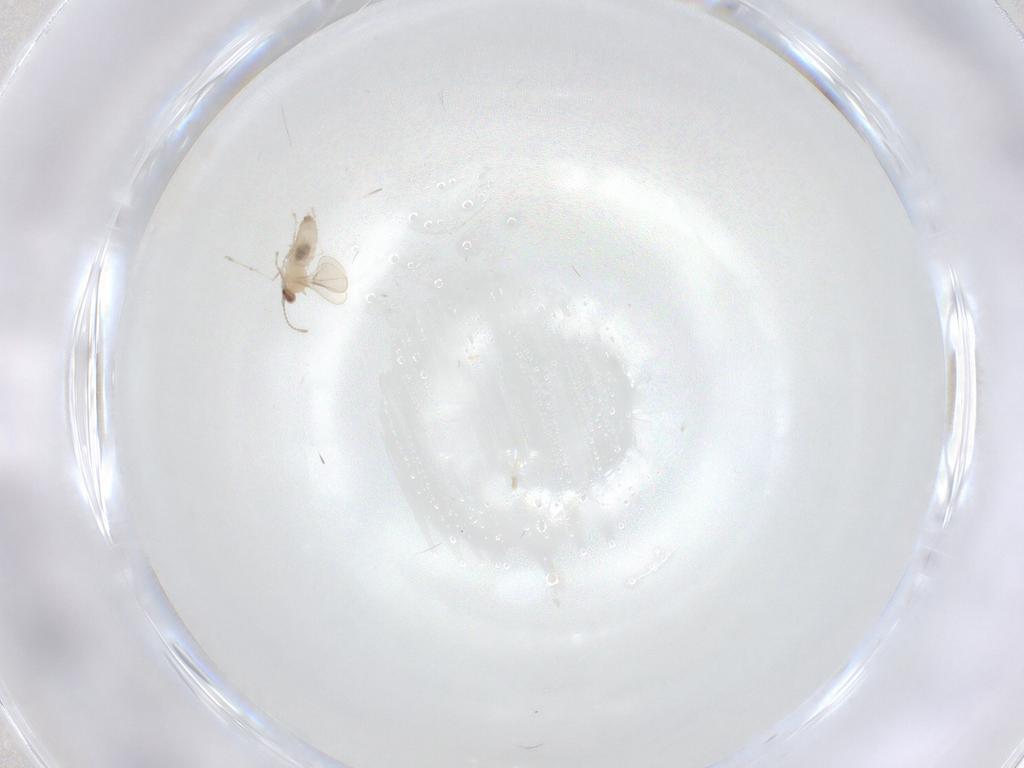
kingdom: Animalia
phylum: Arthropoda
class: Insecta
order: Diptera
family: Cecidomyiidae
